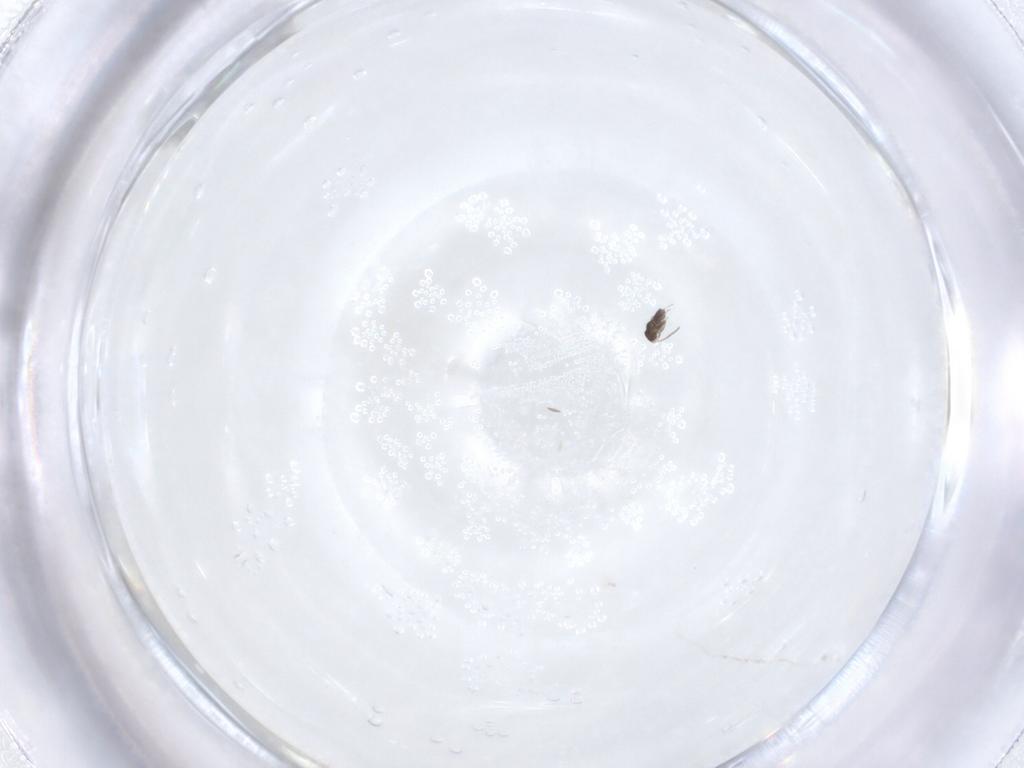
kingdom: Animalia
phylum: Arthropoda
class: Insecta
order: Hymenoptera
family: Mymaridae
